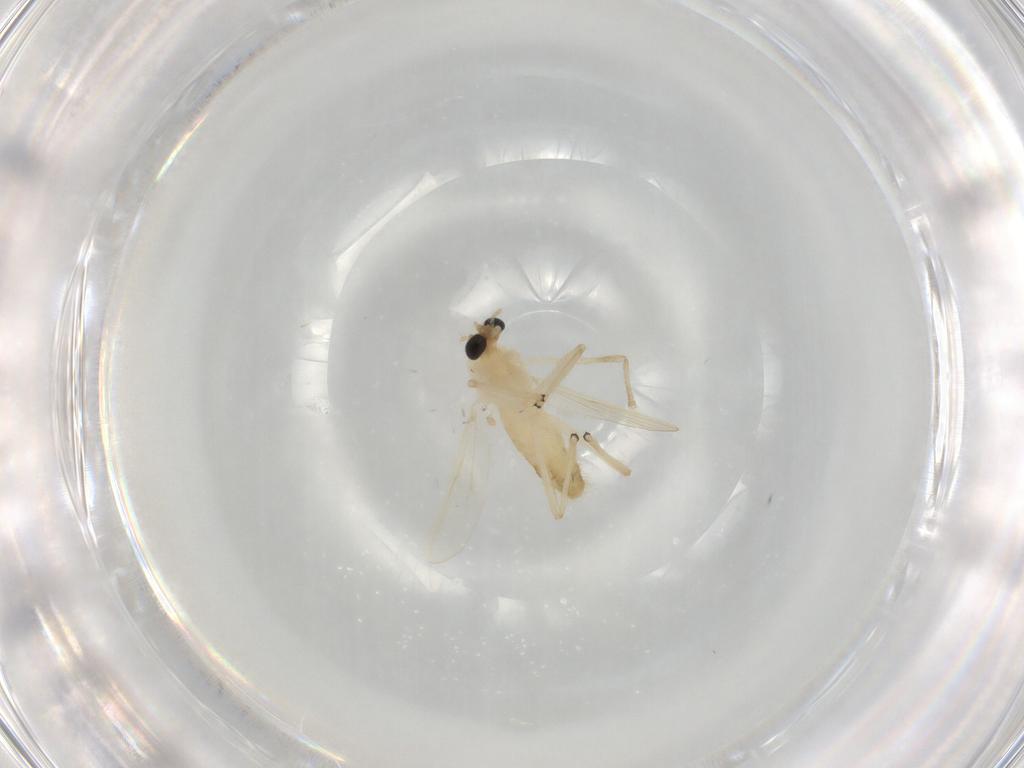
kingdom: Animalia
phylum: Arthropoda
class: Insecta
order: Diptera
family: Chironomidae
